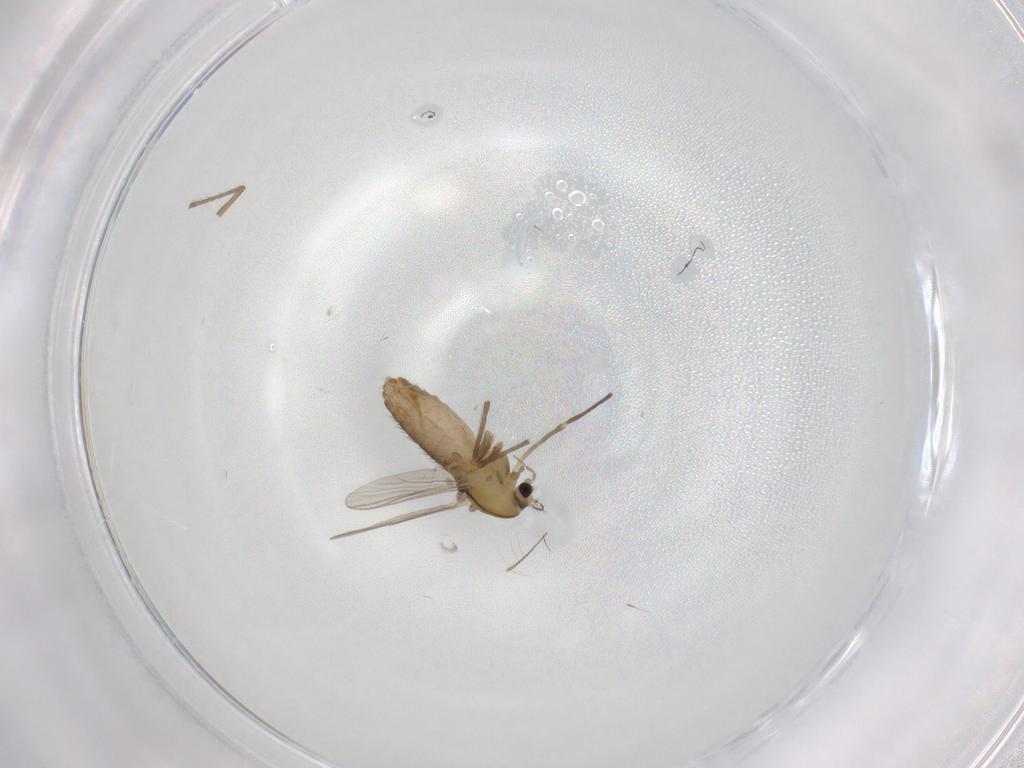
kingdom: Animalia
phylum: Arthropoda
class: Insecta
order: Diptera
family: Chironomidae
